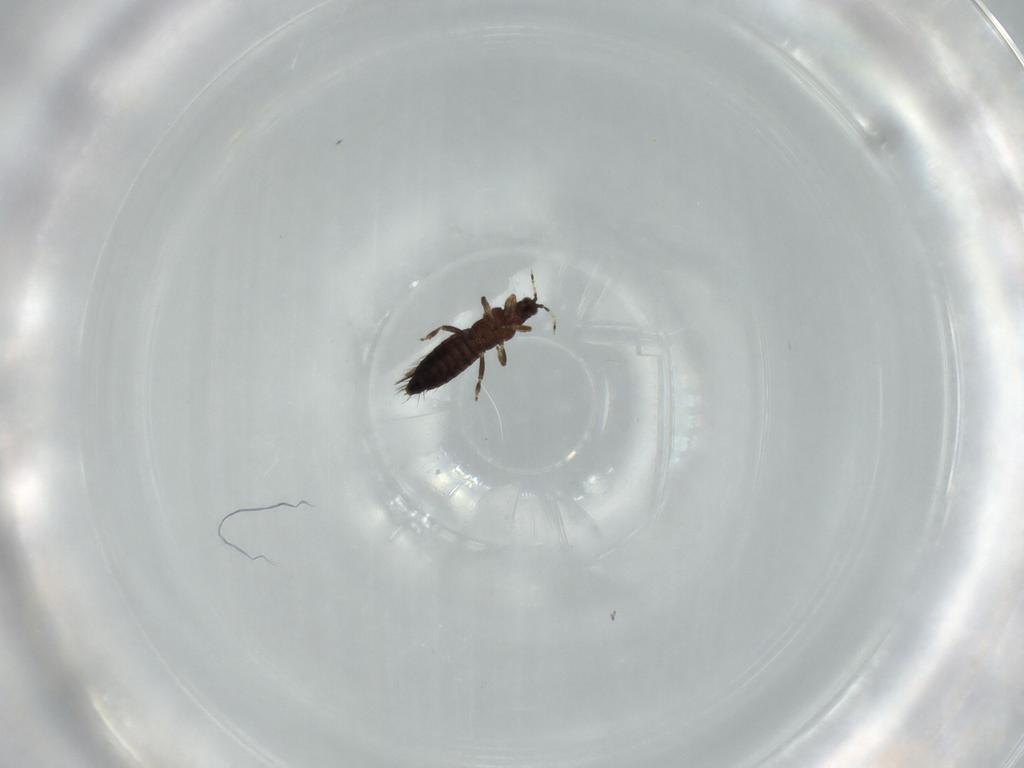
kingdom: Animalia
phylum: Arthropoda
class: Insecta
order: Thysanoptera
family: Thripidae
